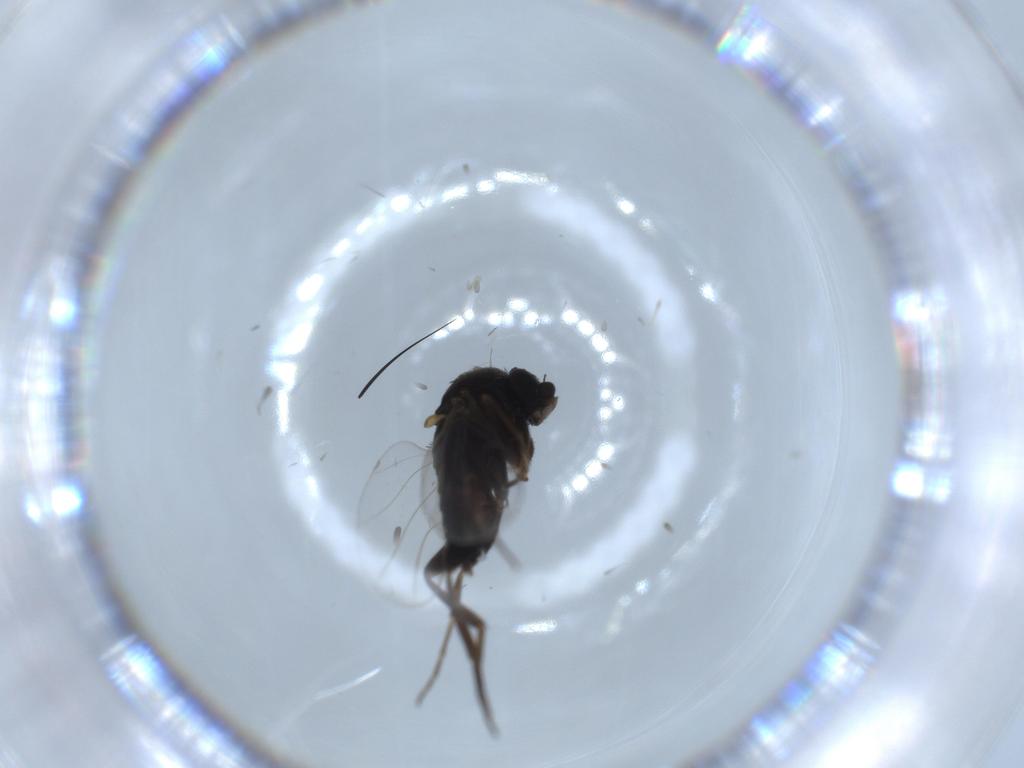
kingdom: Animalia
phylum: Arthropoda
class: Insecta
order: Diptera
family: Phoridae
